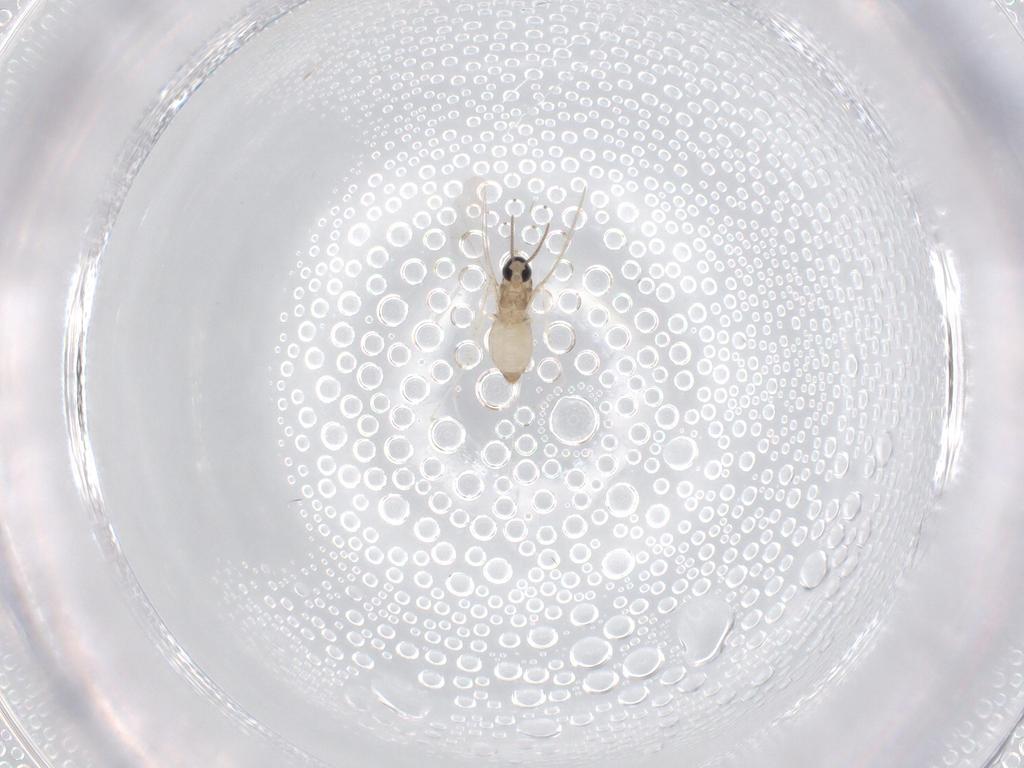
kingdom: Animalia
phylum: Arthropoda
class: Insecta
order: Diptera
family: Cecidomyiidae
